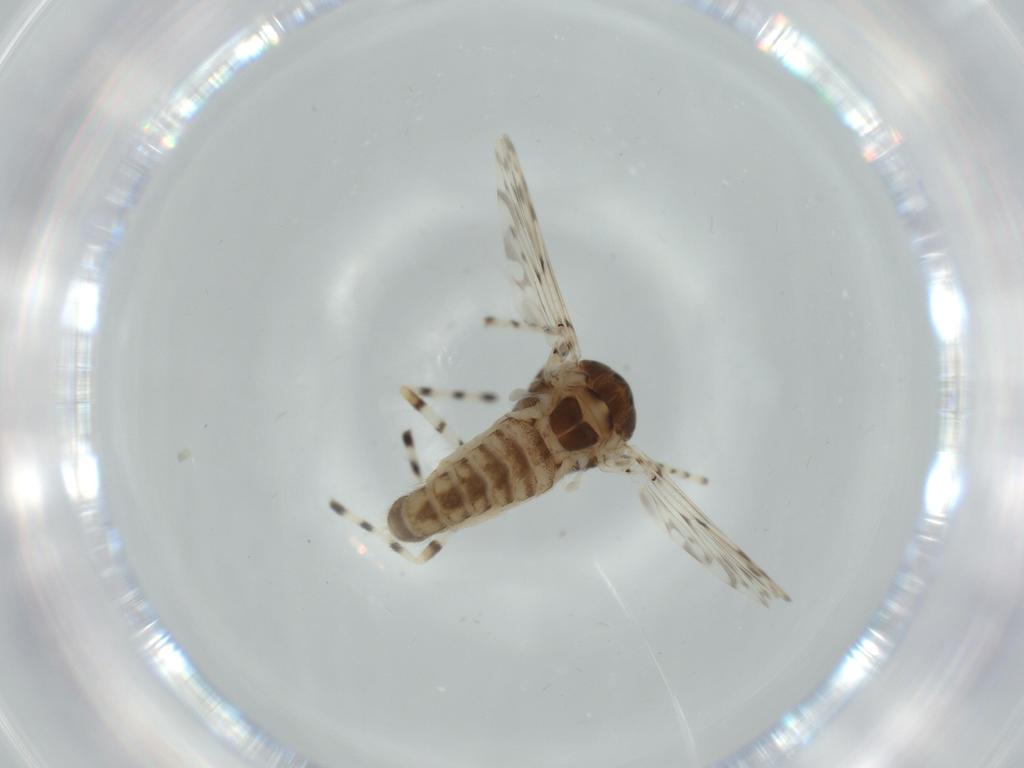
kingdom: Animalia
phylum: Arthropoda
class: Insecta
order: Diptera
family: Chironomidae
